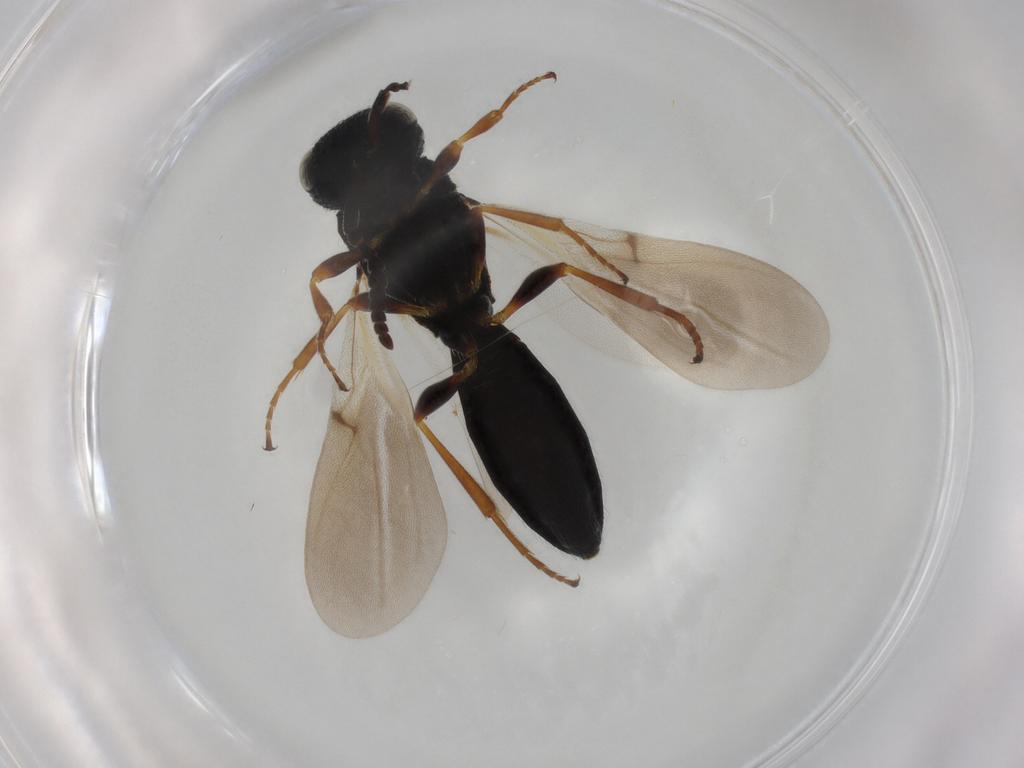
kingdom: Animalia
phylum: Arthropoda
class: Insecta
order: Hymenoptera
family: Scelionidae
